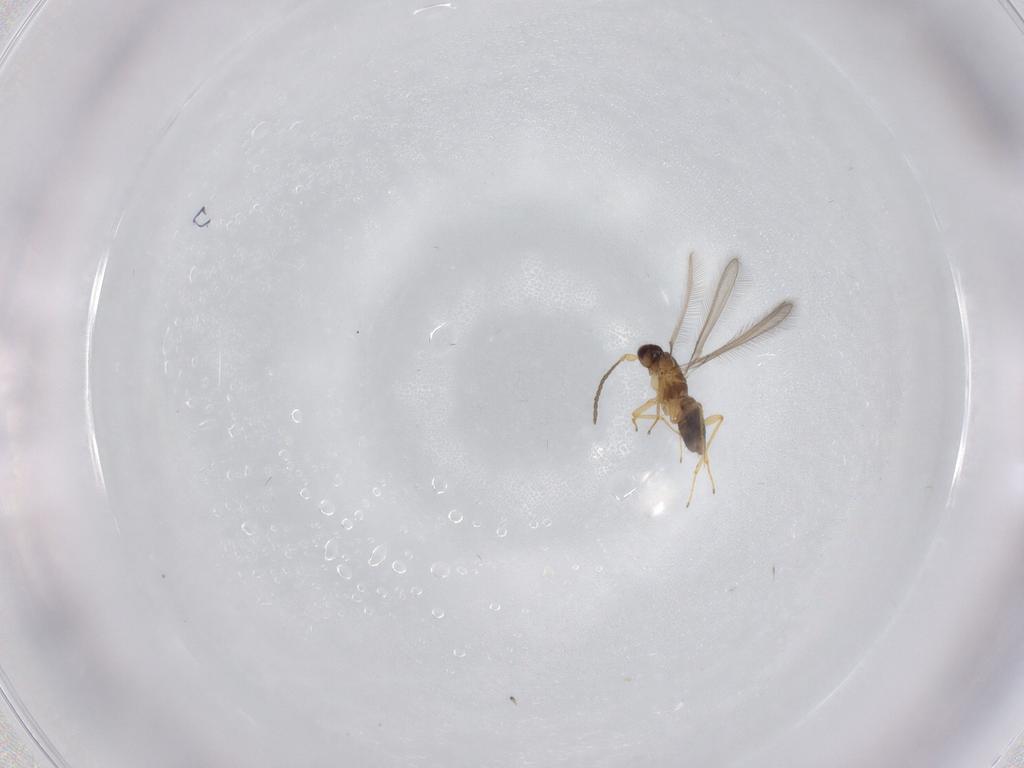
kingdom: Animalia
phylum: Arthropoda
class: Insecta
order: Hymenoptera
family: Mymaridae
